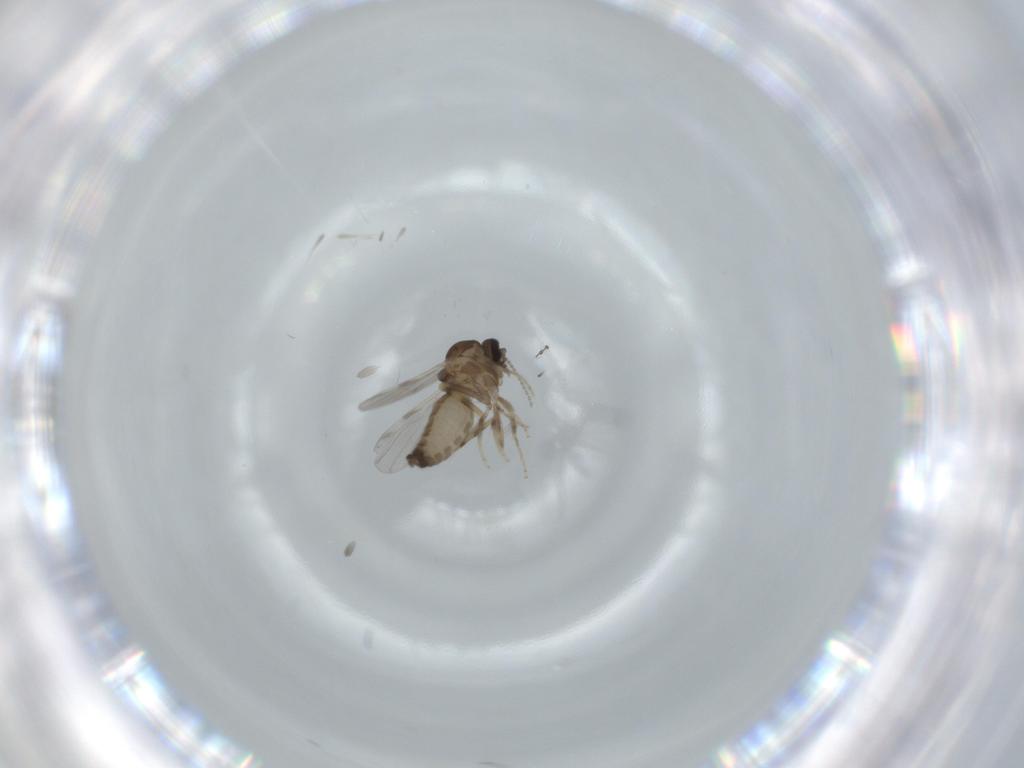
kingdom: Animalia
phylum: Arthropoda
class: Insecta
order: Diptera
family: Ceratopogonidae
